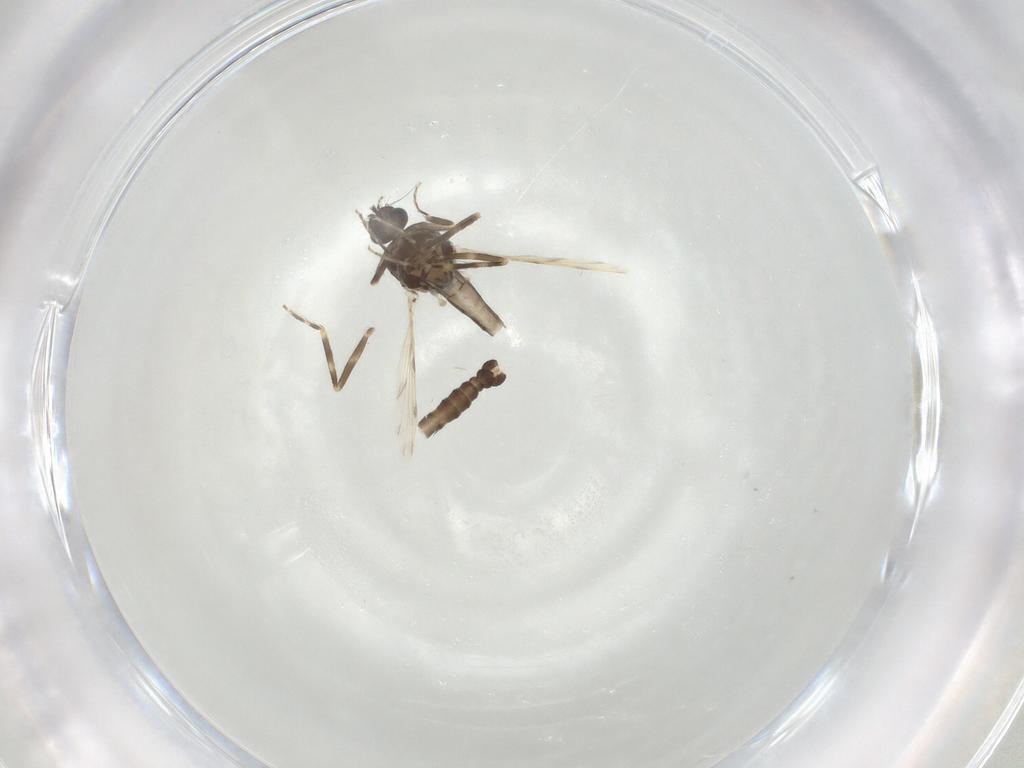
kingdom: Animalia
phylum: Arthropoda
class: Insecta
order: Diptera
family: Ceratopogonidae
